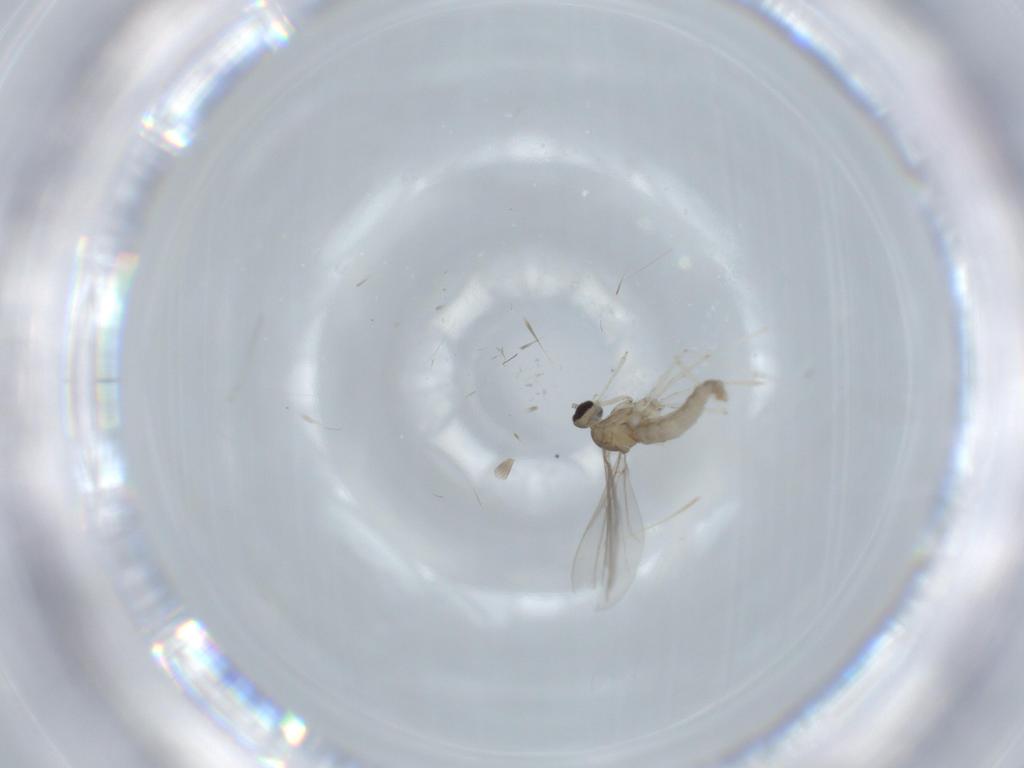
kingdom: Animalia
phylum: Arthropoda
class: Insecta
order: Diptera
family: Cecidomyiidae
